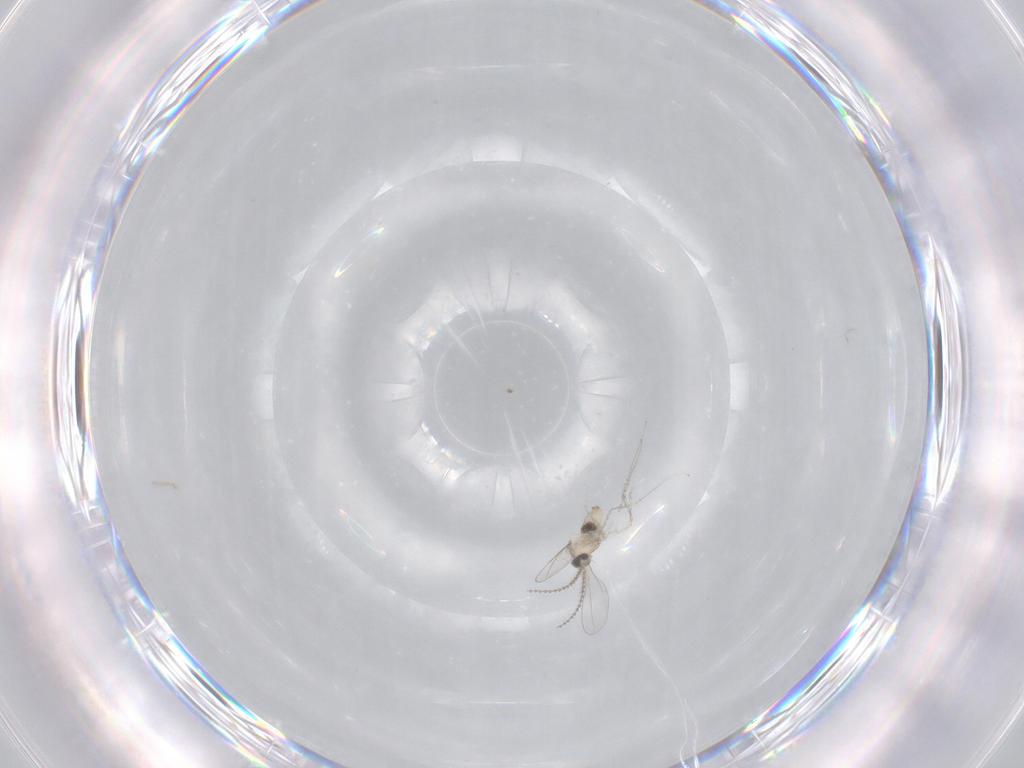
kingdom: Animalia
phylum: Arthropoda
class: Insecta
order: Diptera
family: Cecidomyiidae
